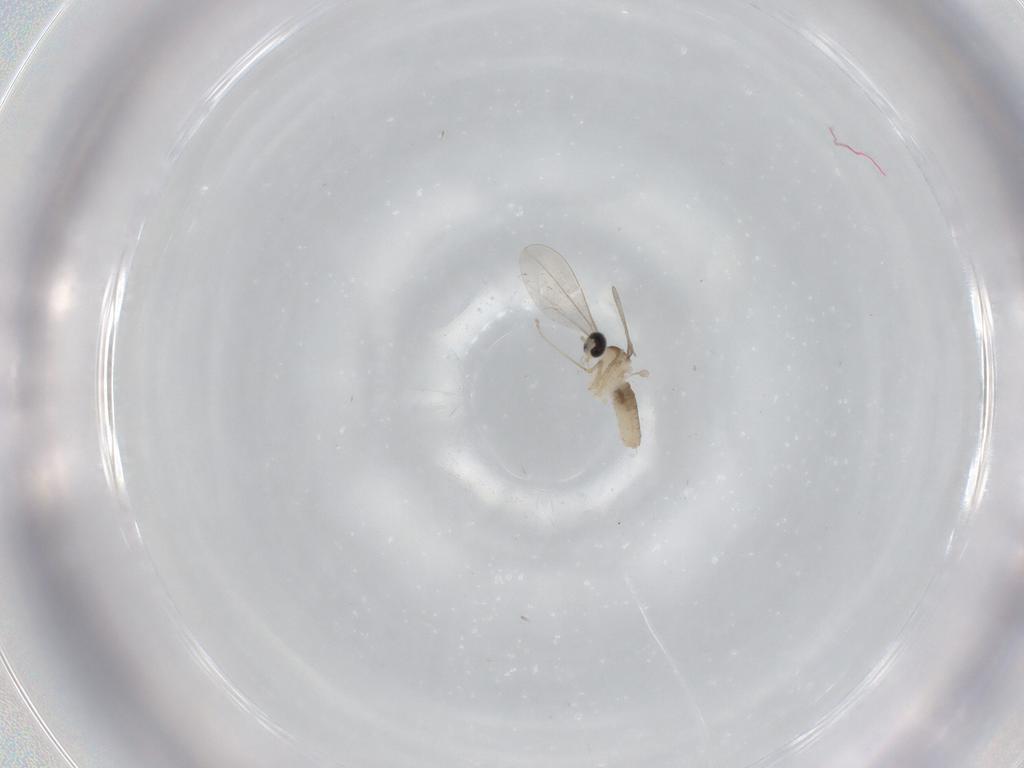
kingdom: Animalia
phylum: Arthropoda
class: Insecta
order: Diptera
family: Cecidomyiidae
